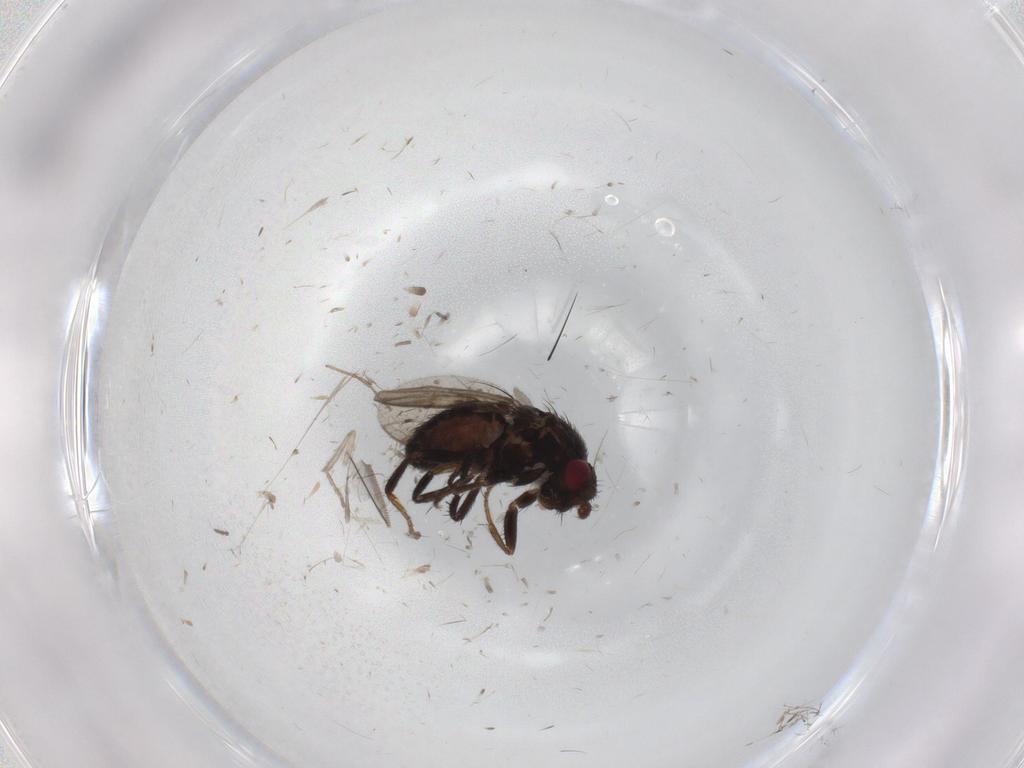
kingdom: Animalia
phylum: Arthropoda
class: Insecta
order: Diptera
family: Sphaeroceridae
